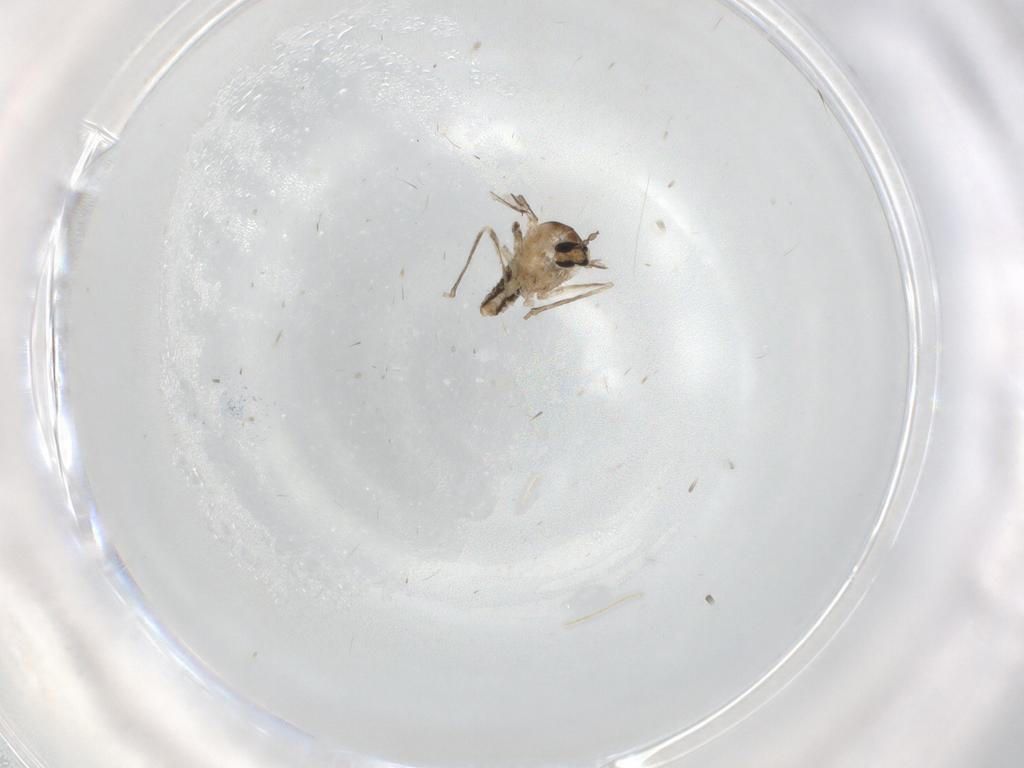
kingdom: Animalia
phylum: Arthropoda
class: Insecta
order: Diptera
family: Cecidomyiidae
